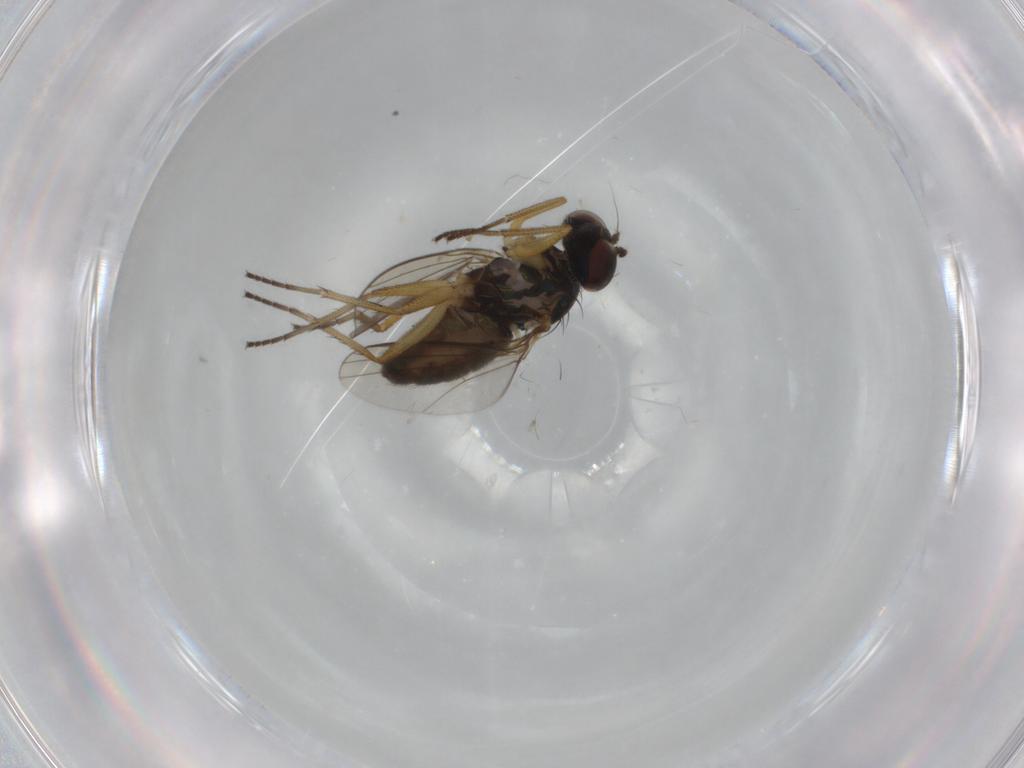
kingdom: Animalia
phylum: Arthropoda
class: Insecta
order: Diptera
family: Dolichopodidae
